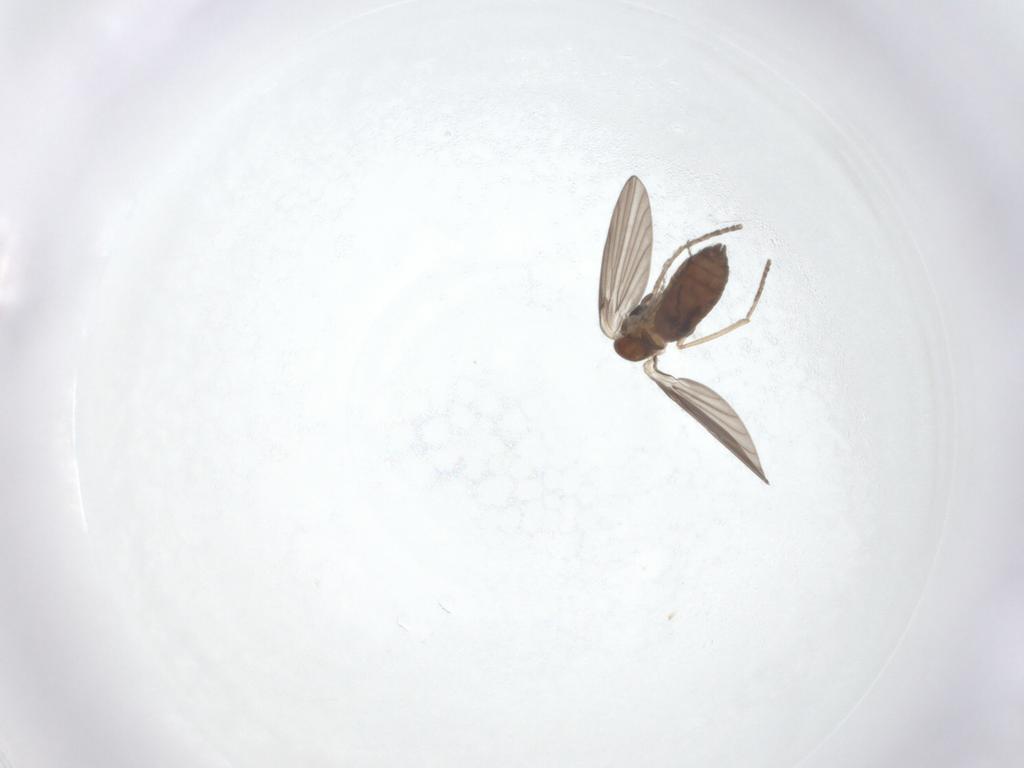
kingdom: Animalia
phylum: Arthropoda
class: Insecta
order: Diptera
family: Psychodidae
